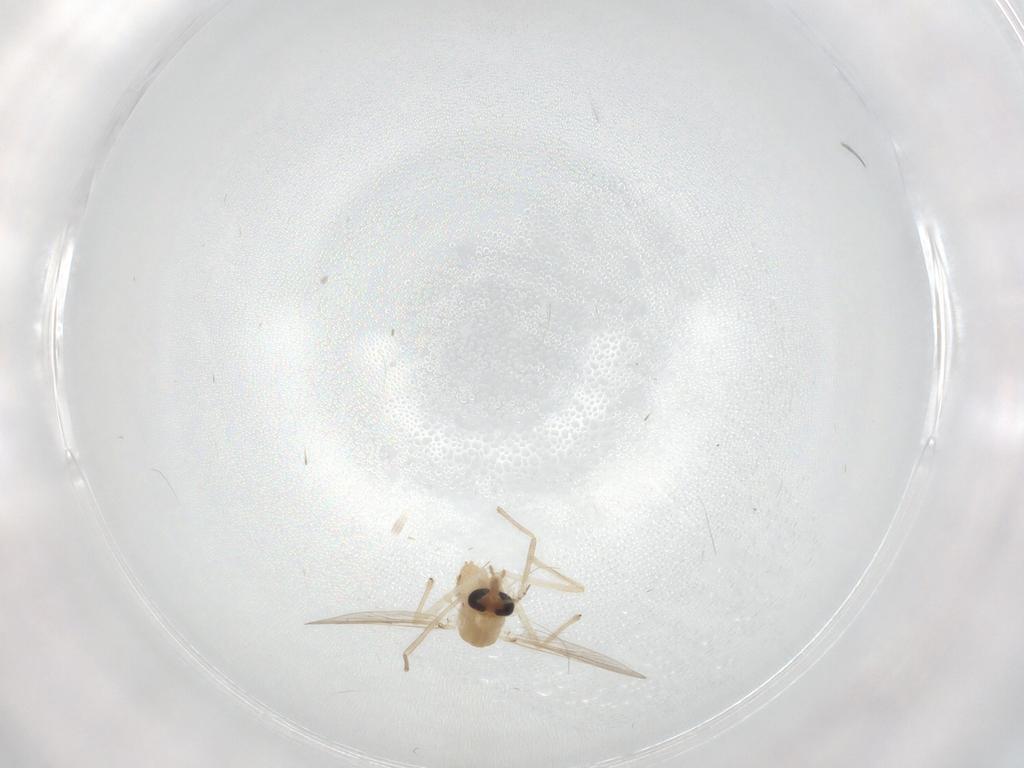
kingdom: Animalia
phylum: Arthropoda
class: Insecta
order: Diptera
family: Chironomidae
